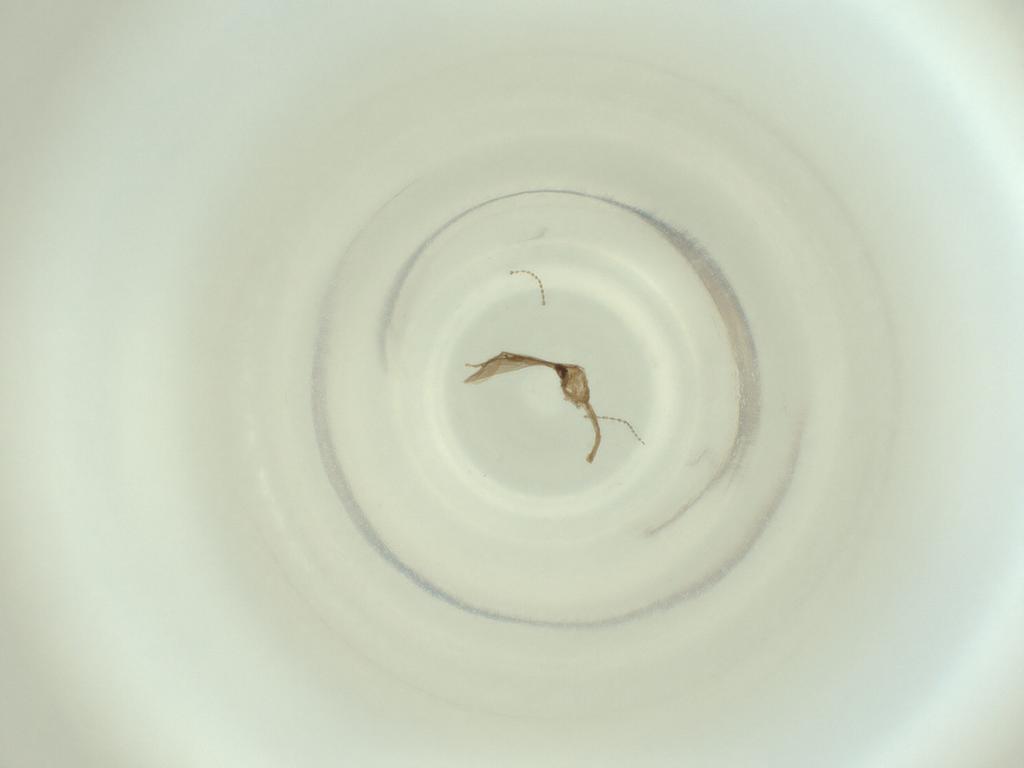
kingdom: Animalia
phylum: Arthropoda
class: Insecta
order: Diptera
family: Cecidomyiidae
